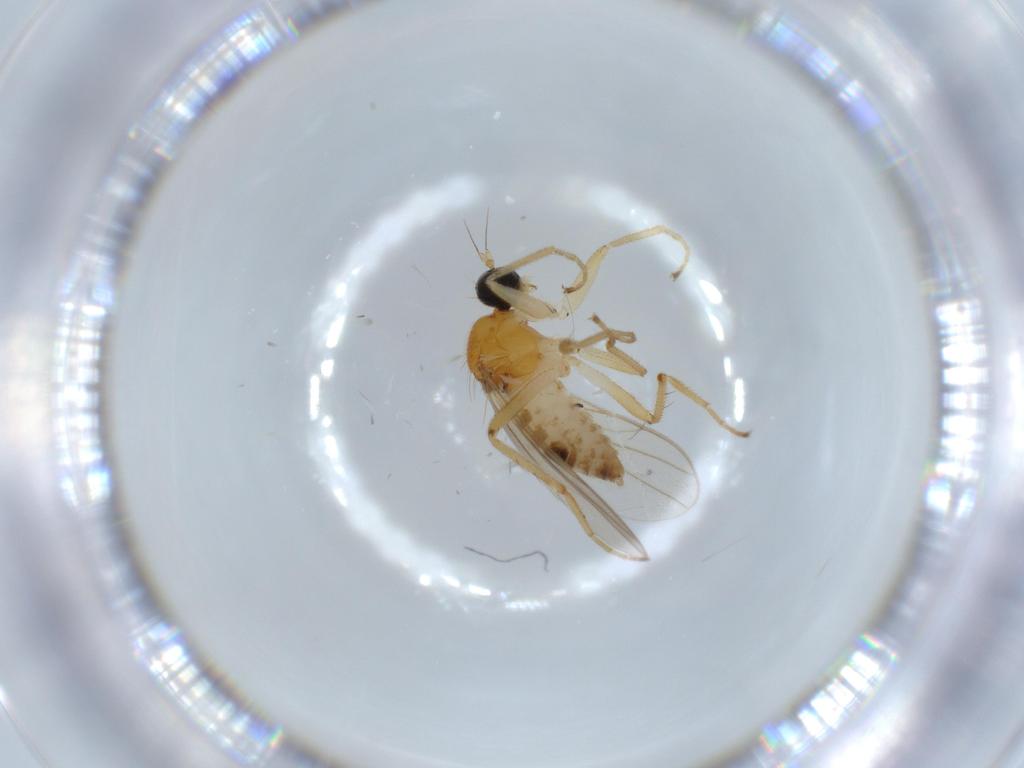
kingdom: Animalia
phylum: Arthropoda
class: Insecta
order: Diptera
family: Hybotidae
